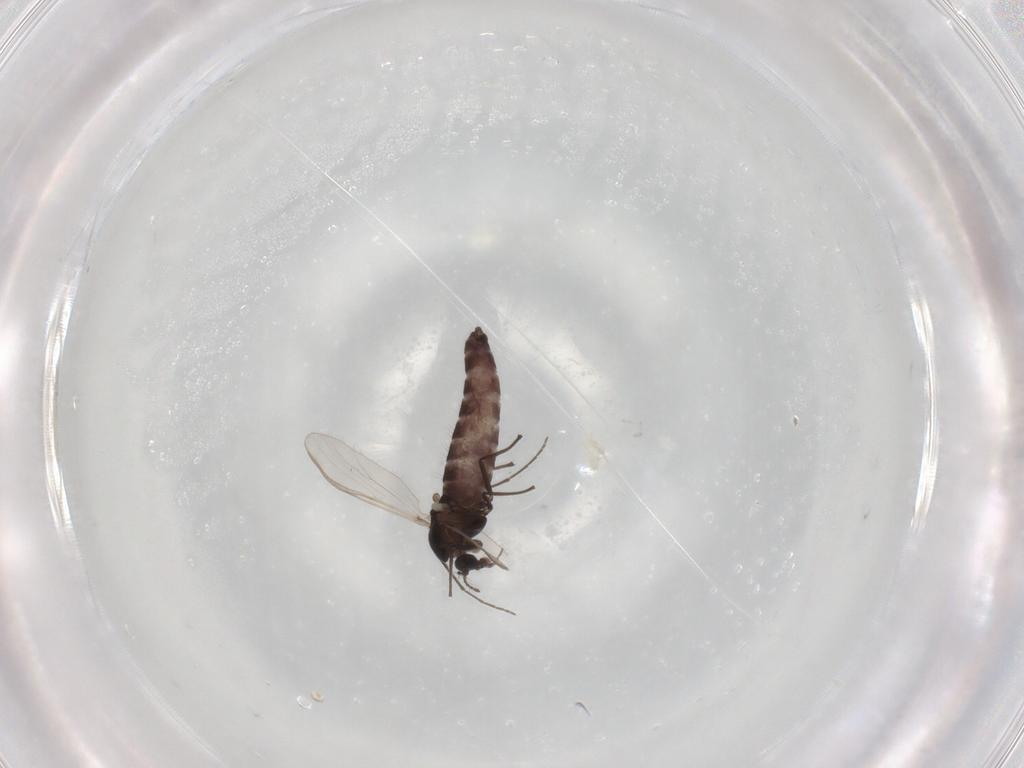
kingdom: Animalia
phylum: Arthropoda
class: Insecta
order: Diptera
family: Chironomidae
